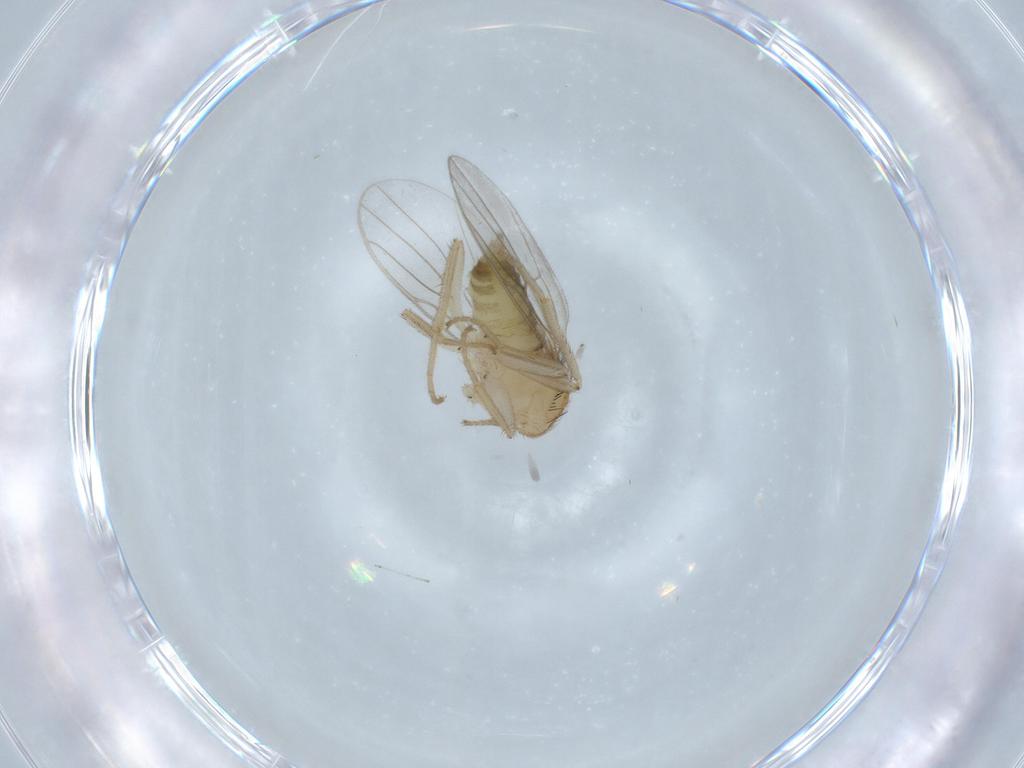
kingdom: Animalia
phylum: Arthropoda
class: Insecta
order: Diptera
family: Hybotidae
